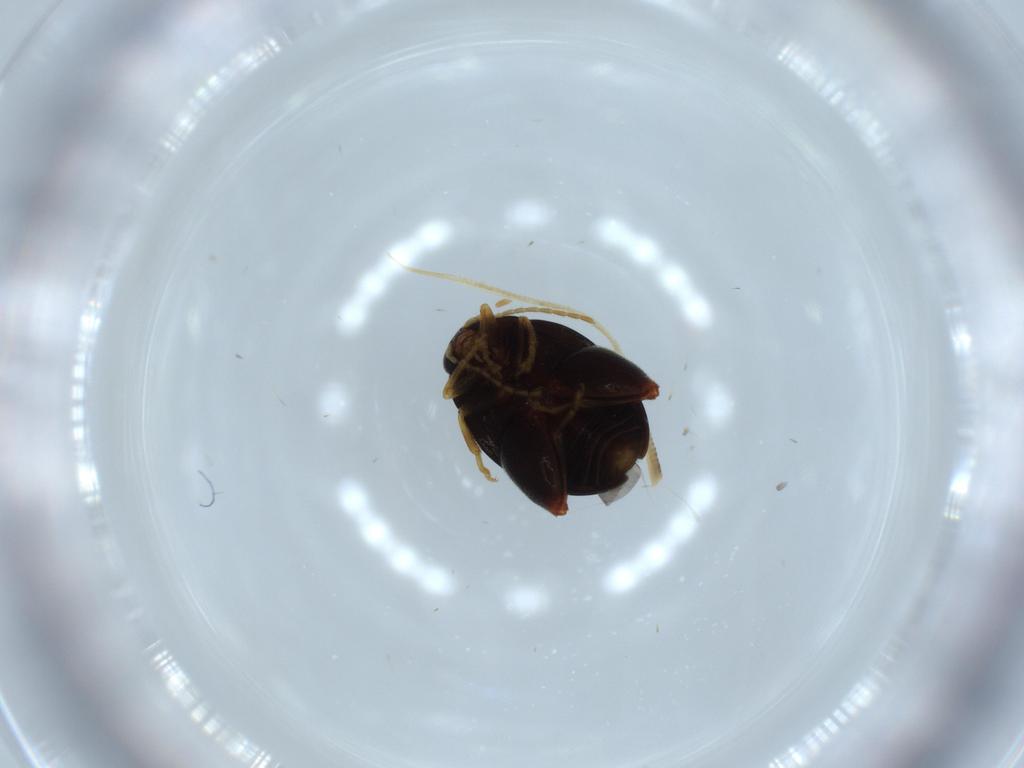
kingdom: Animalia
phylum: Arthropoda
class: Insecta
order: Coleoptera
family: Chrysomelidae
